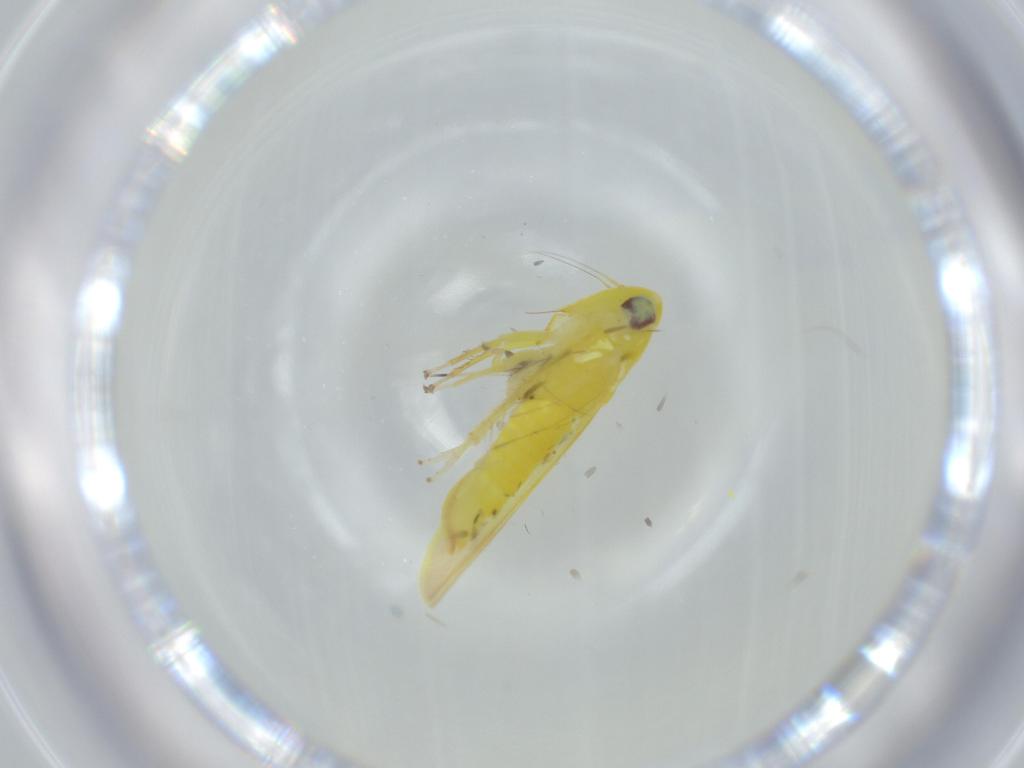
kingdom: Animalia
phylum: Arthropoda
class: Insecta
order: Hemiptera
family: Cicadellidae
